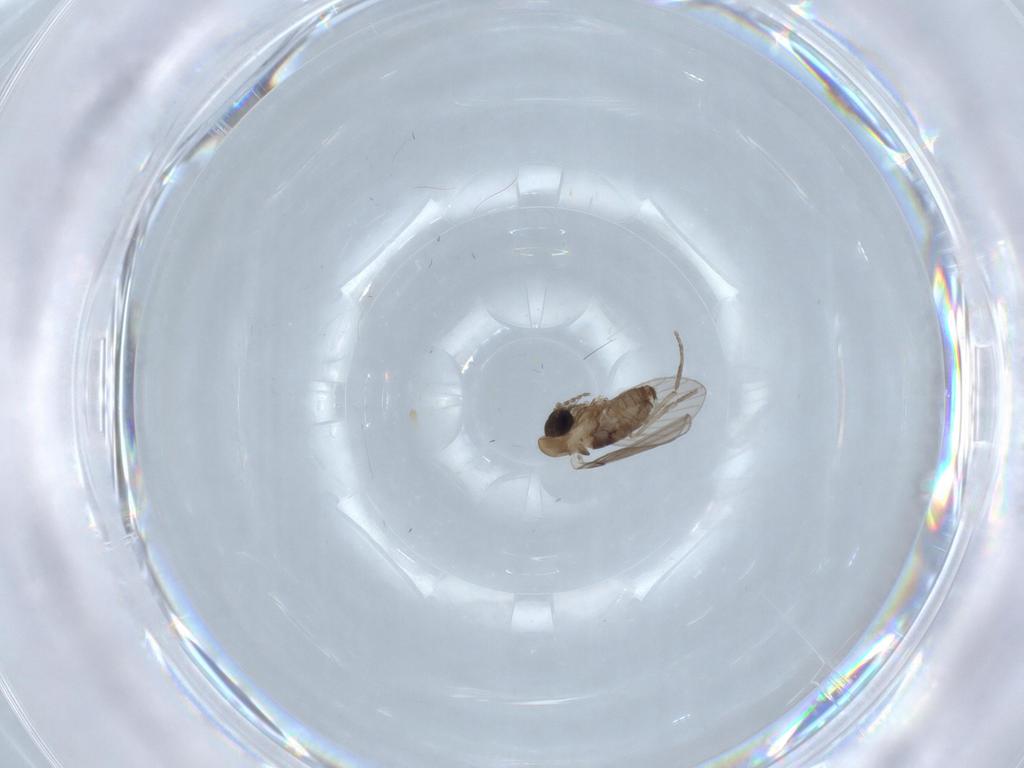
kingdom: Animalia
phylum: Arthropoda
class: Insecta
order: Diptera
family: Psychodidae
